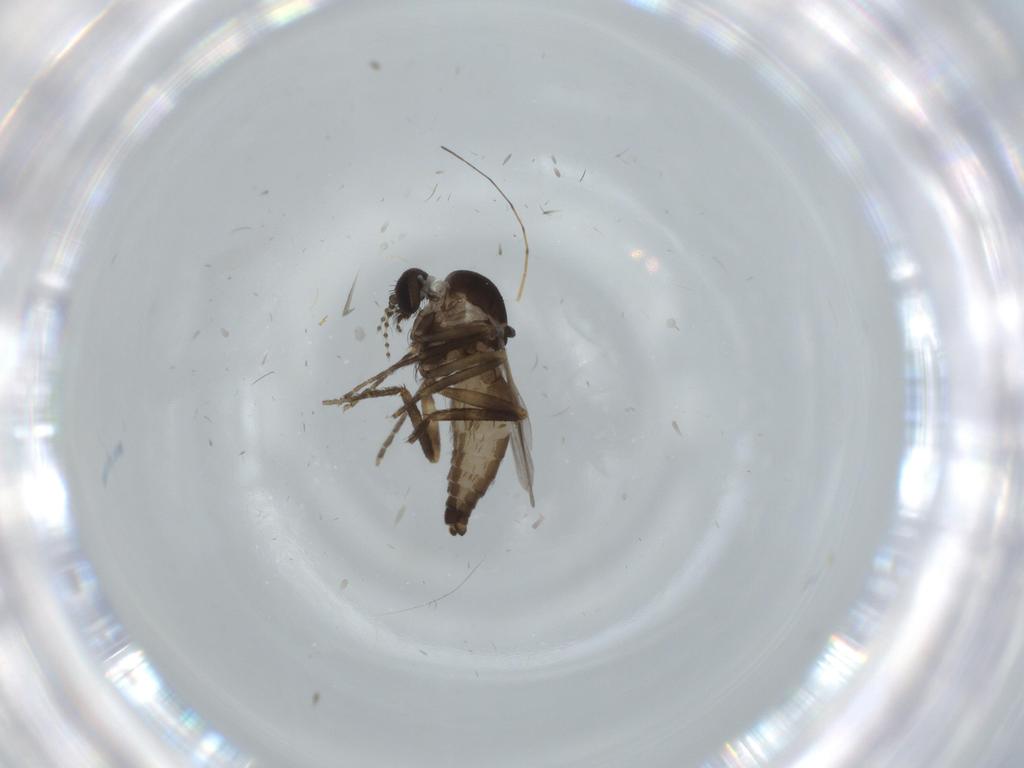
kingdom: Animalia
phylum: Arthropoda
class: Insecta
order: Diptera
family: Ceratopogonidae
